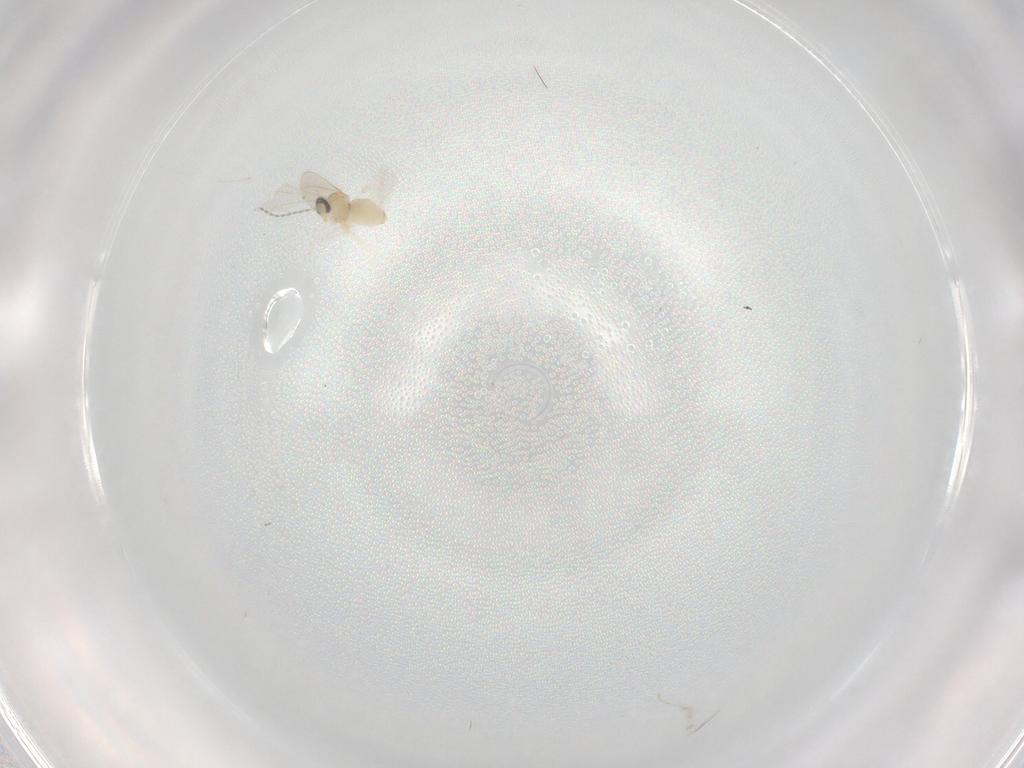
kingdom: Animalia
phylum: Arthropoda
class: Insecta
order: Diptera
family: Cecidomyiidae
